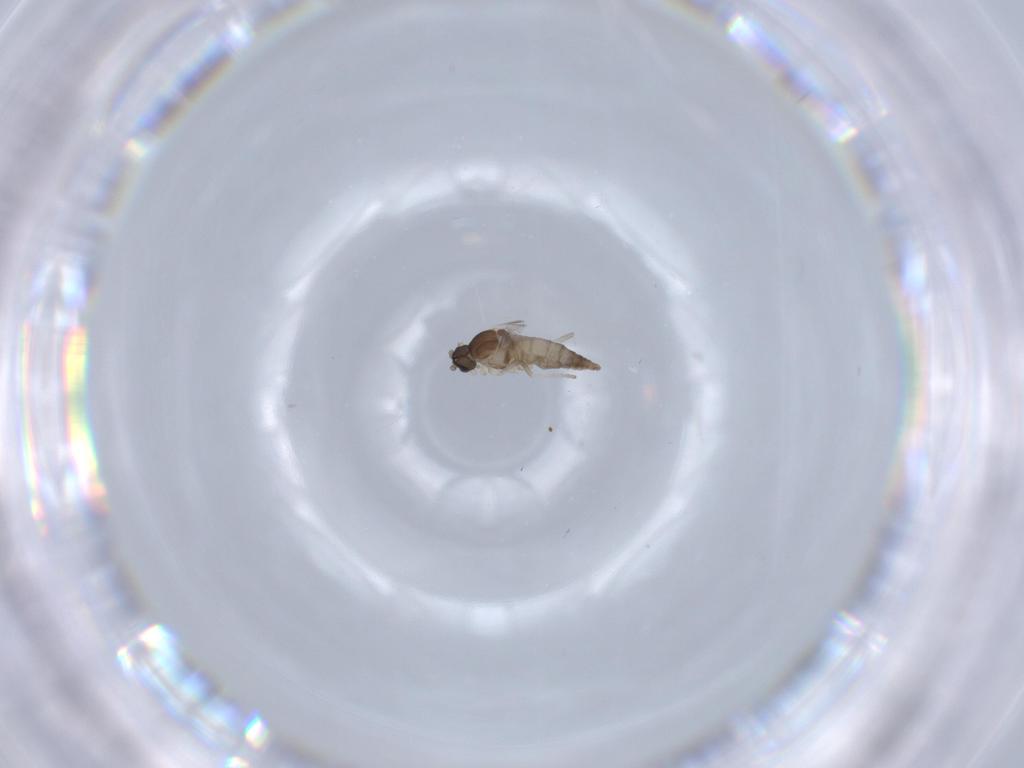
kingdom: Animalia
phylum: Arthropoda
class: Insecta
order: Diptera
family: Cecidomyiidae
